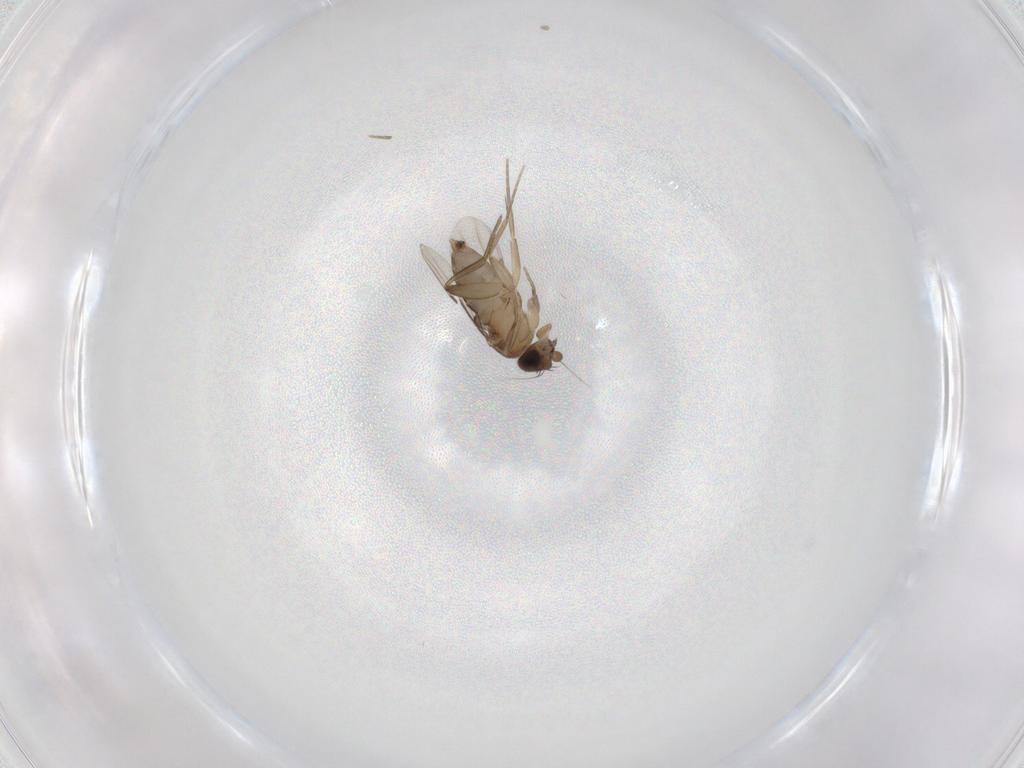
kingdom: Animalia
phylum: Arthropoda
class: Insecta
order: Diptera
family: Phoridae
